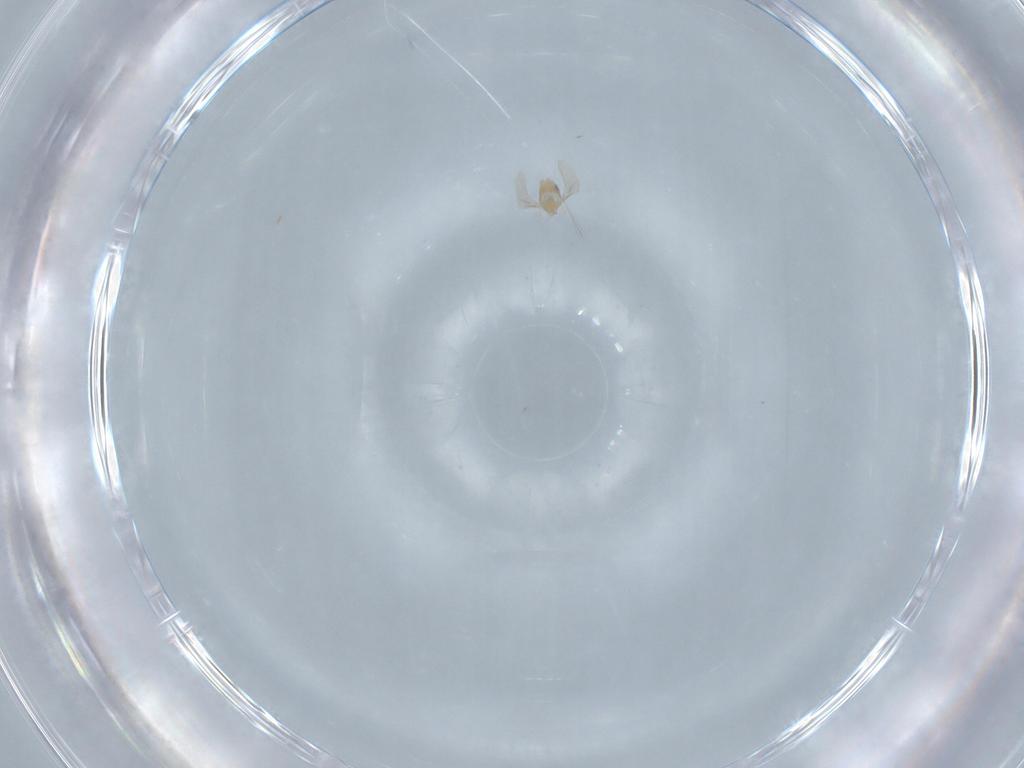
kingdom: Animalia
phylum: Arthropoda
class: Insecta
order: Diptera
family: Cecidomyiidae
